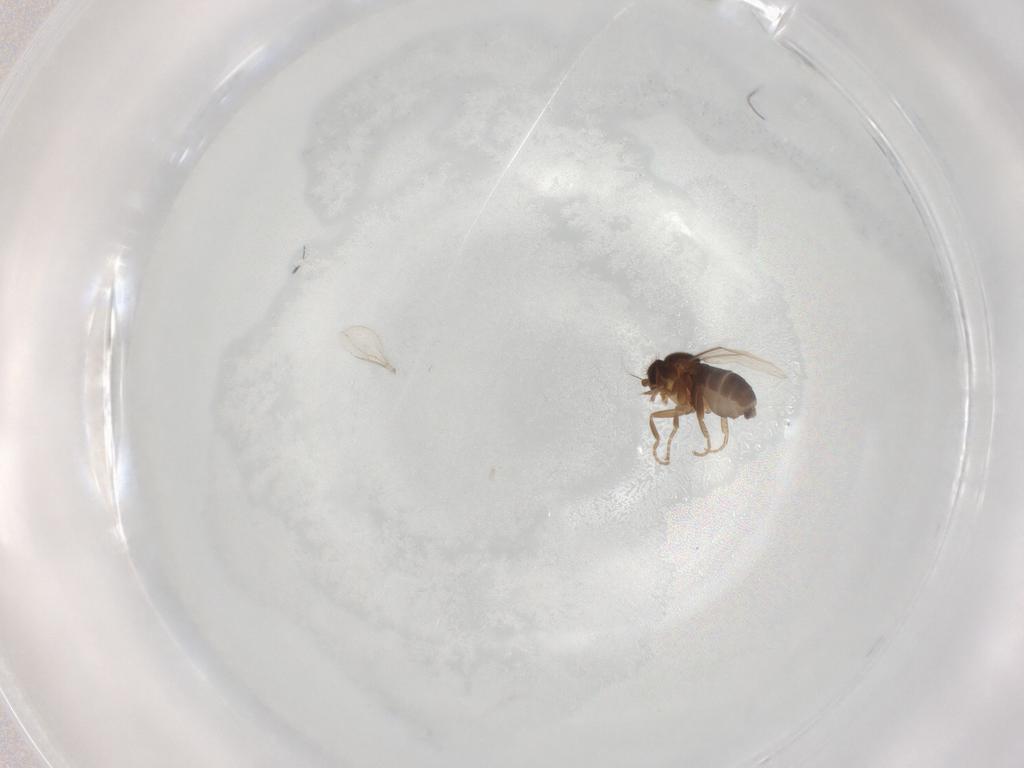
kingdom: Animalia
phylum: Arthropoda
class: Insecta
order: Diptera
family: Phoridae
